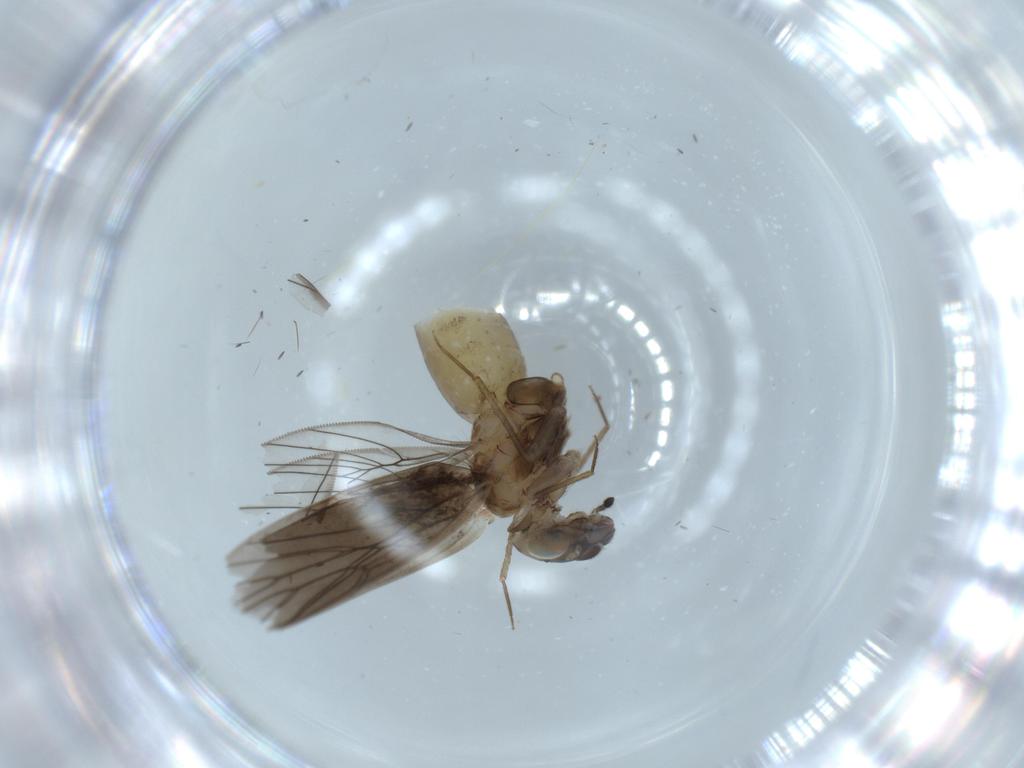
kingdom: Animalia
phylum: Arthropoda
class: Insecta
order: Psocodea
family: Lepidopsocidae
